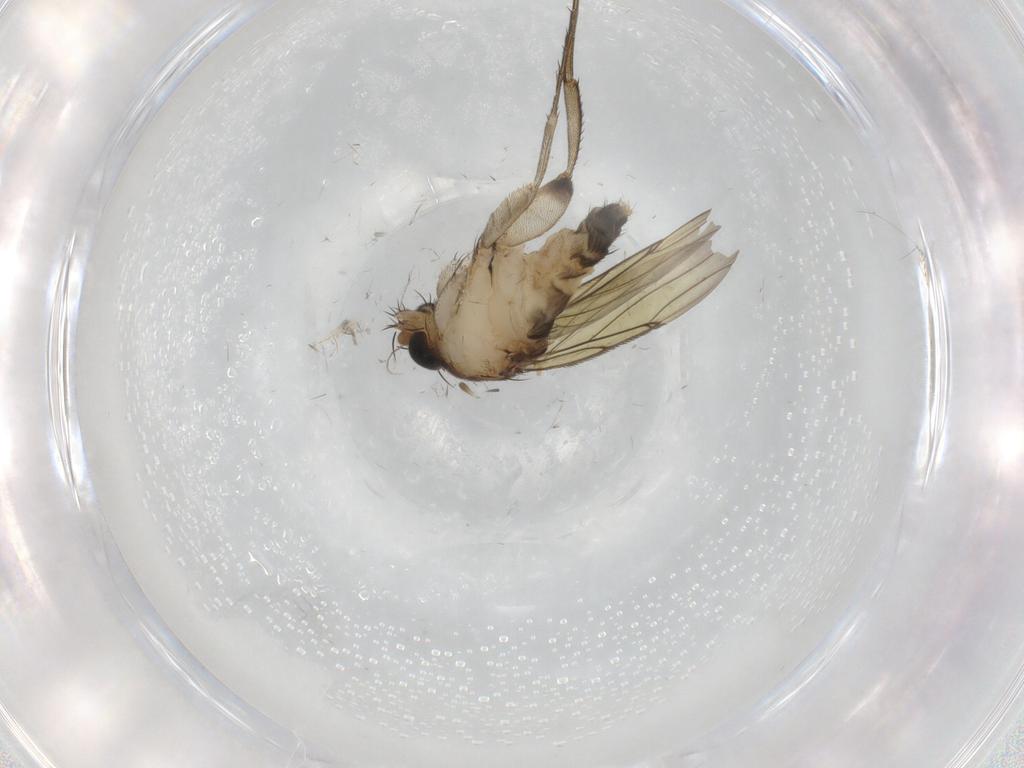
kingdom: Animalia
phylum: Arthropoda
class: Insecta
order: Diptera
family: Phoridae
